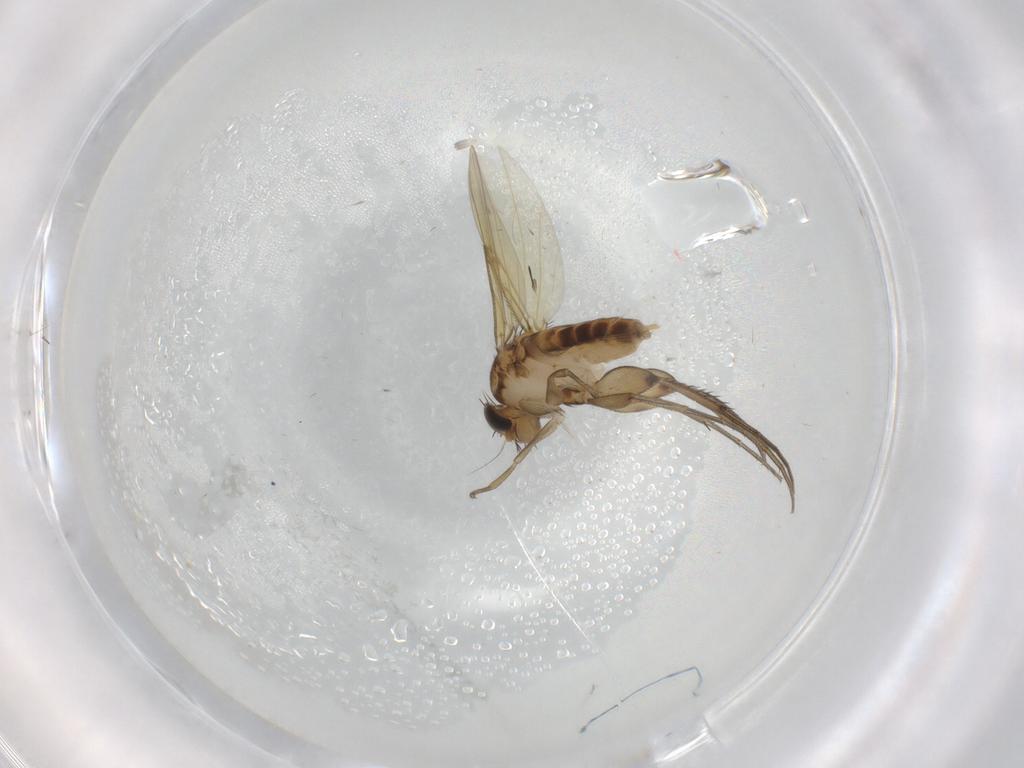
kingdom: Animalia
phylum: Arthropoda
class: Insecta
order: Diptera
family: Phoridae
